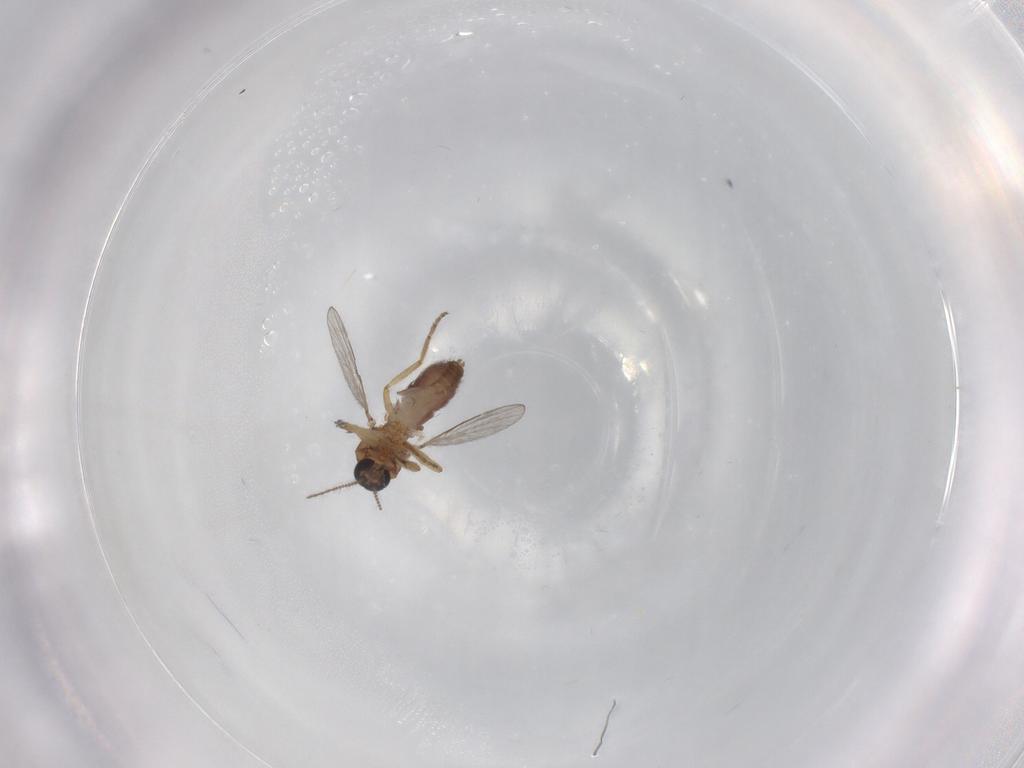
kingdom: Animalia
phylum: Arthropoda
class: Insecta
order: Diptera
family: Ceratopogonidae
